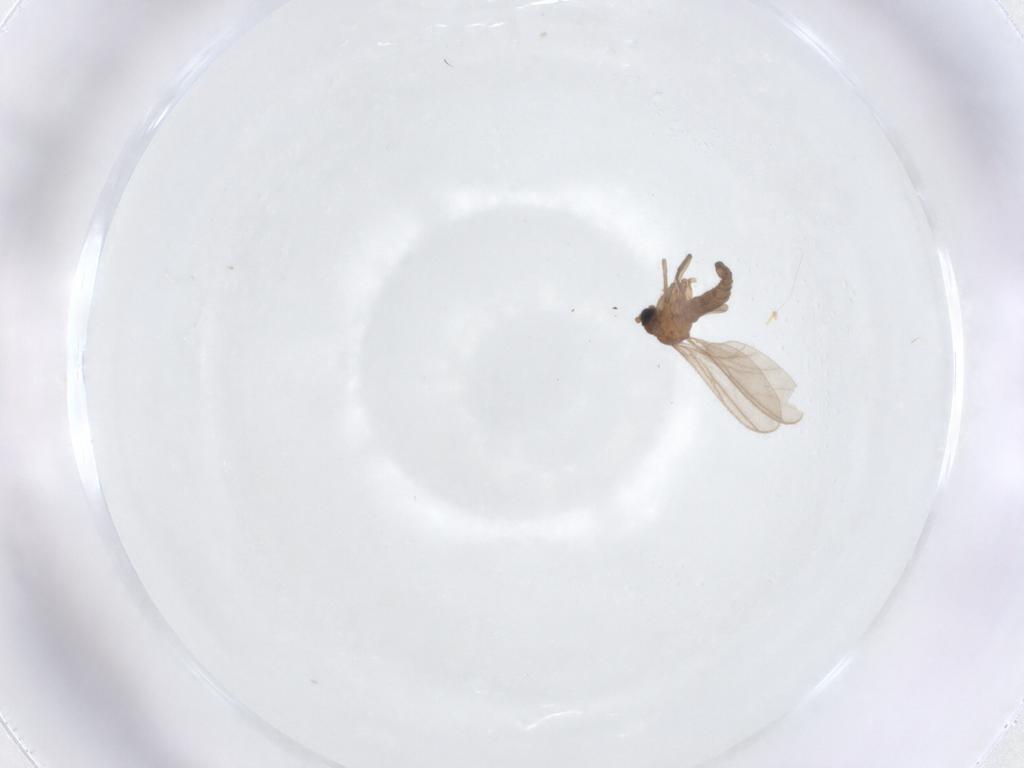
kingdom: Animalia
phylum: Arthropoda
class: Insecta
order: Diptera
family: Sciaridae
